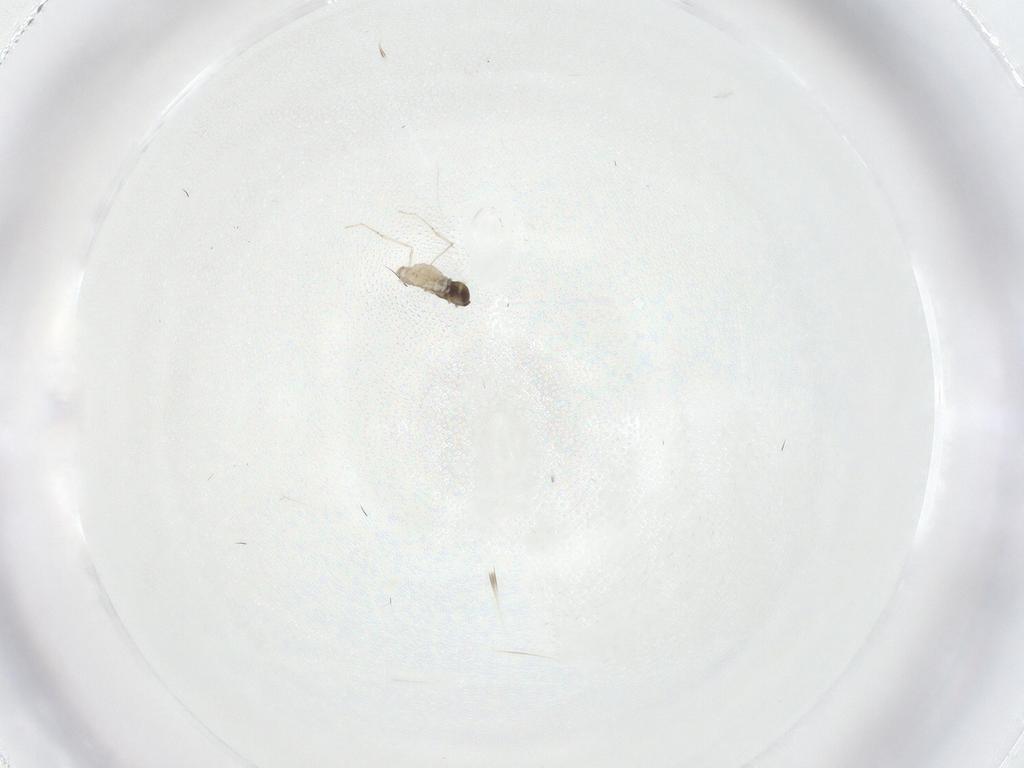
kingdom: Animalia
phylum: Arthropoda
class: Insecta
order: Diptera
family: Cecidomyiidae
